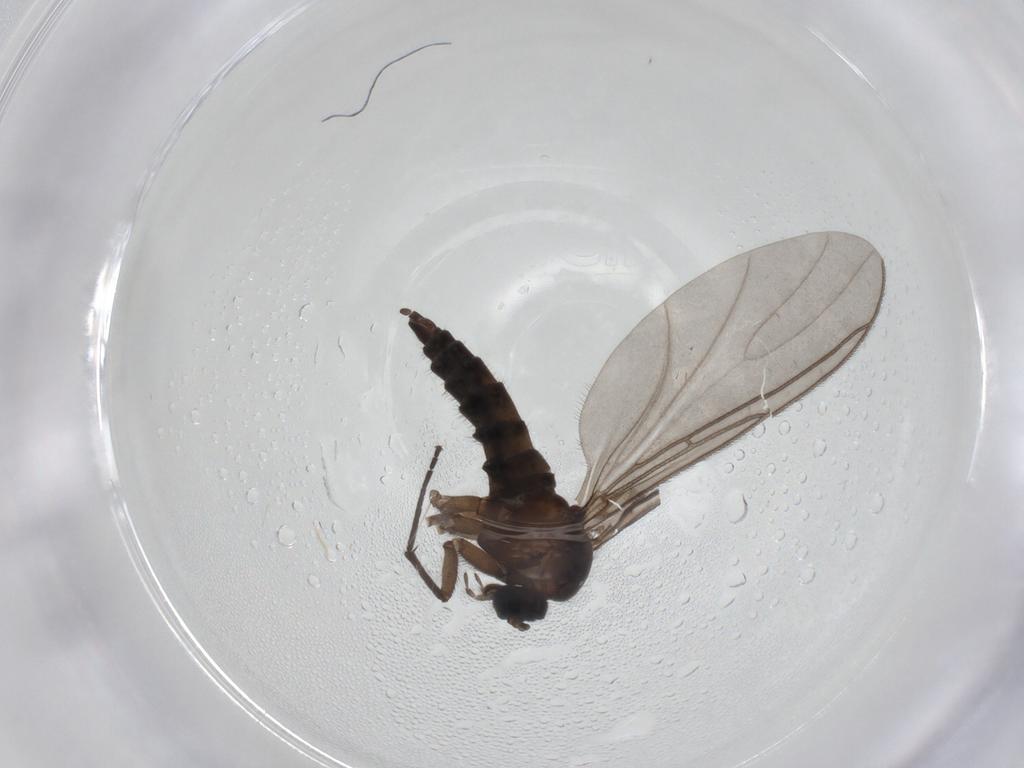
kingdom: Animalia
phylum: Arthropoda
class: Insecta
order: Diptera
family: Sciaridae
